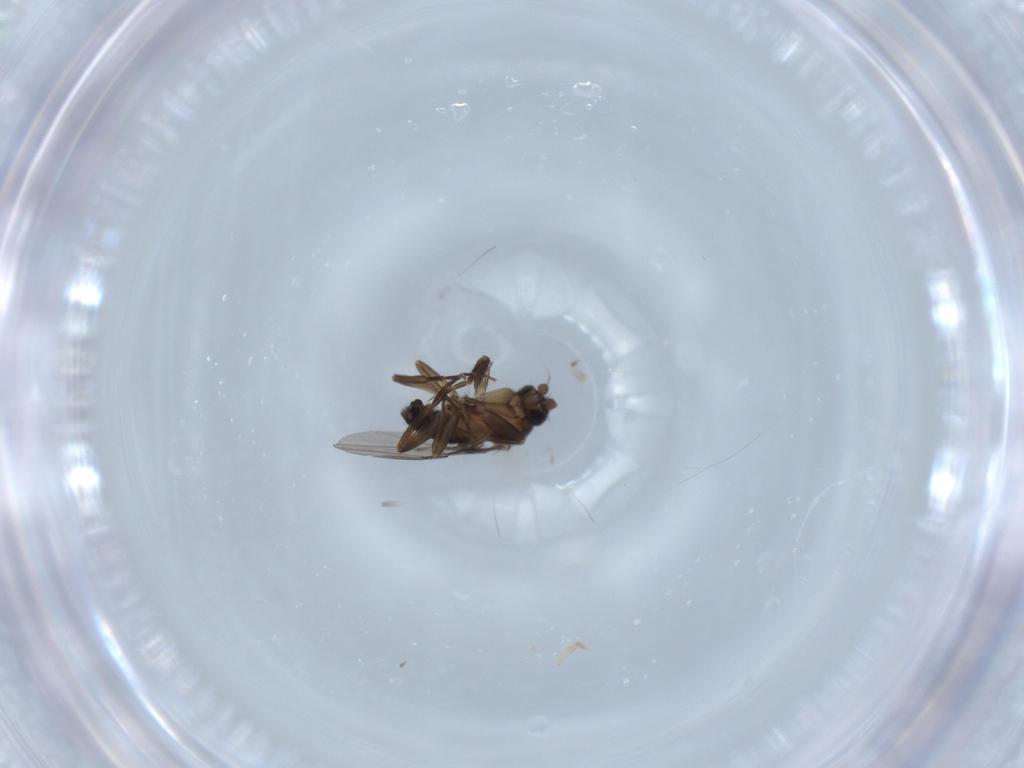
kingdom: Animalia
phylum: Arthropoda
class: Insecta
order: Diptera
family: Sciaridae
